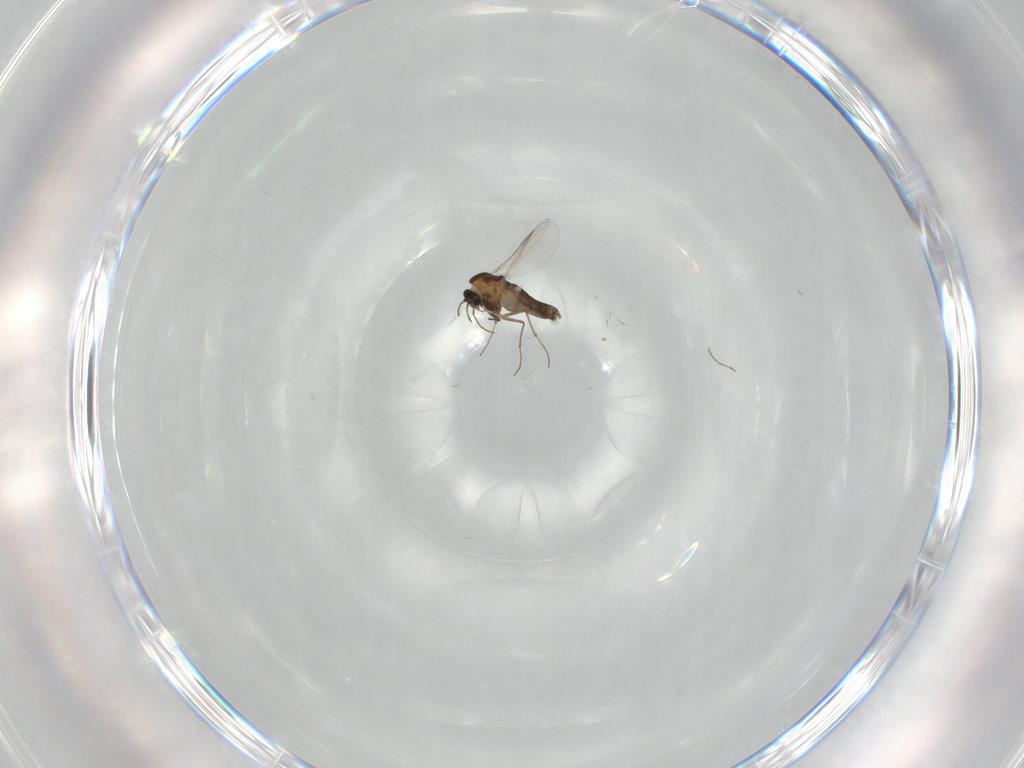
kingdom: Animalia
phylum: Arthropoda
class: Insecta
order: Diptera
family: Chironomidae
